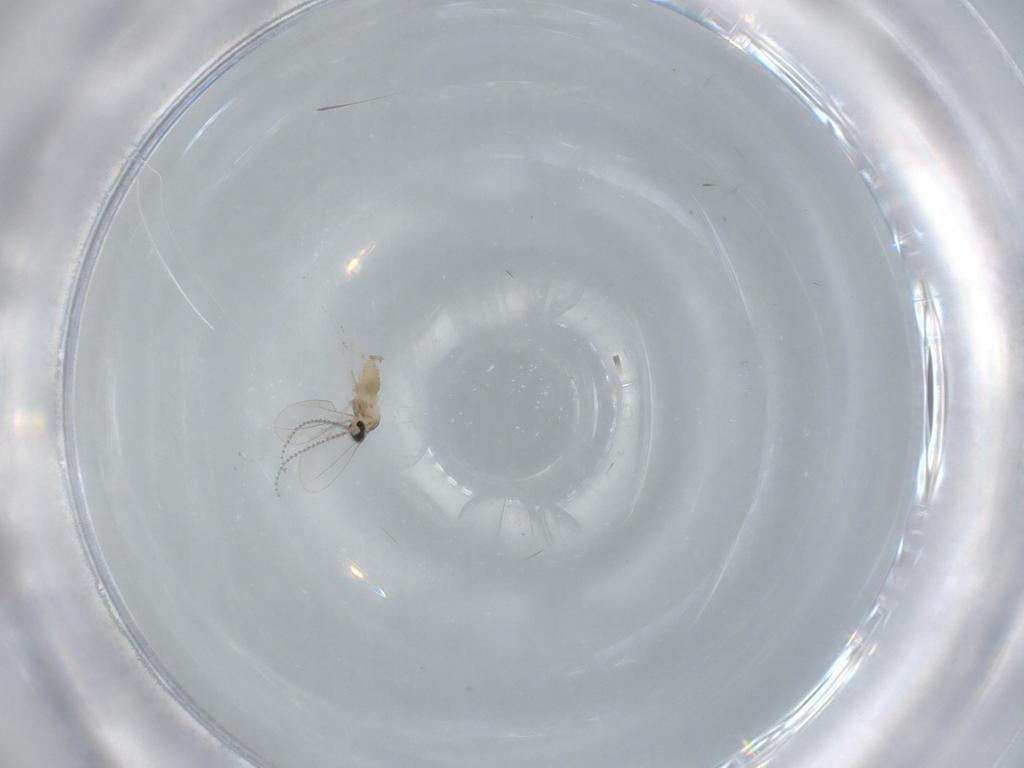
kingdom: Animalia
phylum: Arthropoda
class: Insecta
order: Diptera
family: Cecidomyiidae
